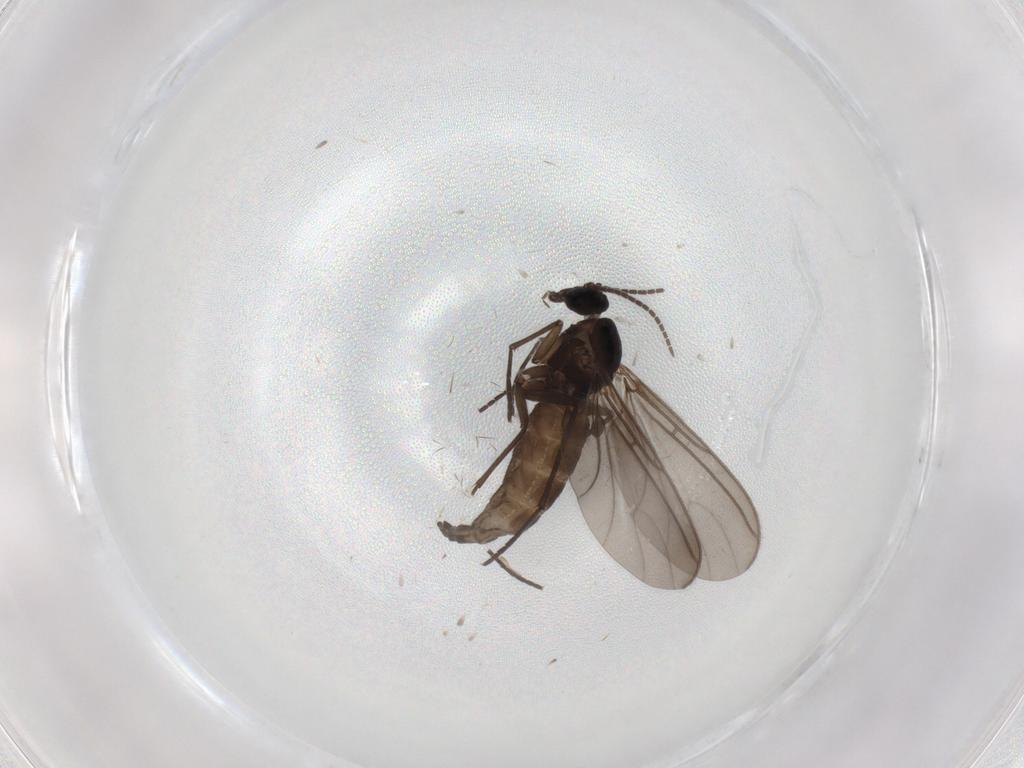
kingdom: Animalia
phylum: Arthropoda
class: Insecta
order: Diptera
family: Sciaridae
